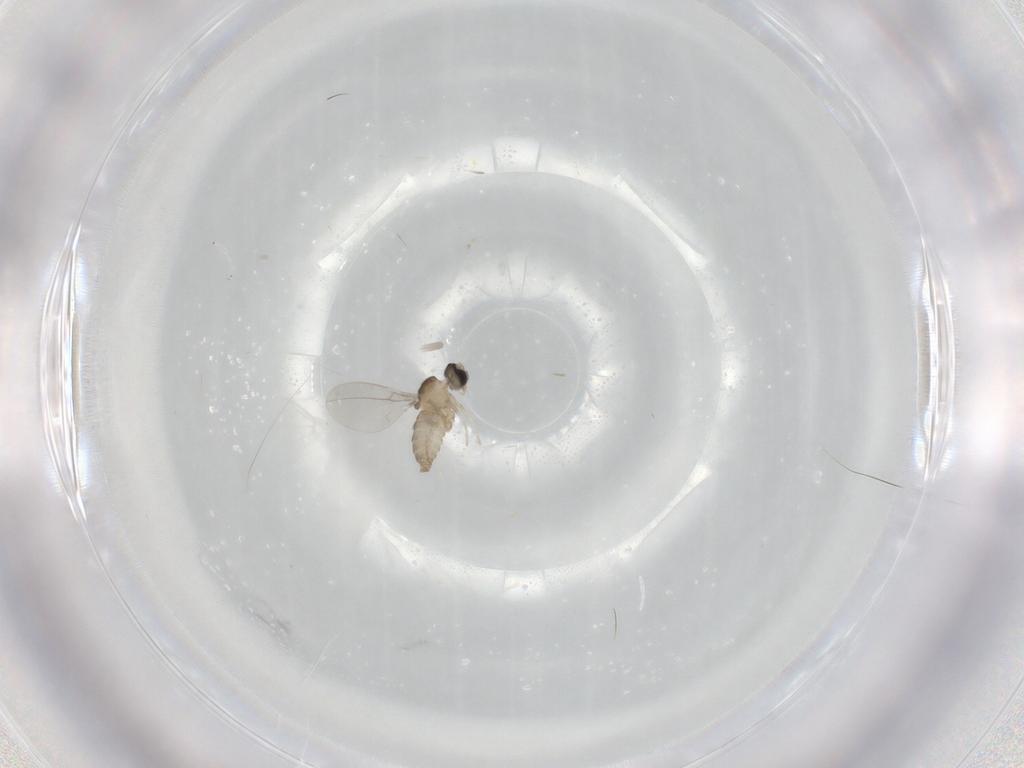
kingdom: Animalia
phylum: Arthropoda
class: Insecta
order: Diptera
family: Cecidomyiidae
